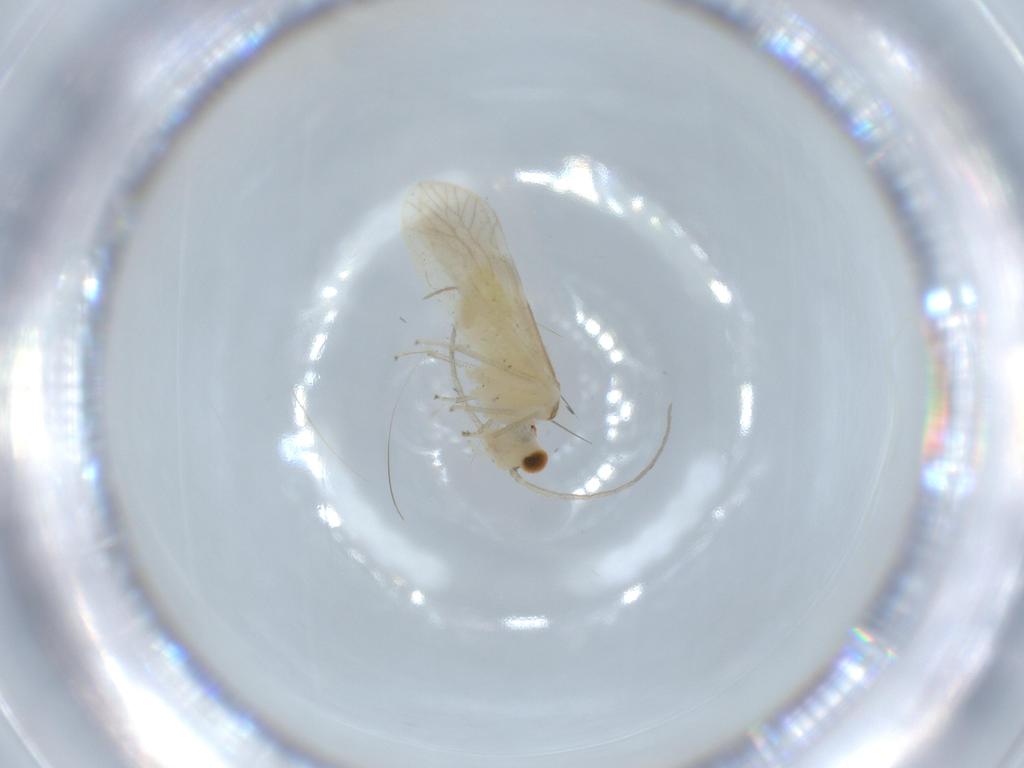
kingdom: Animalia
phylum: Arthropoda
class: Insecta
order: Psocodea
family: Caeciliusidae
